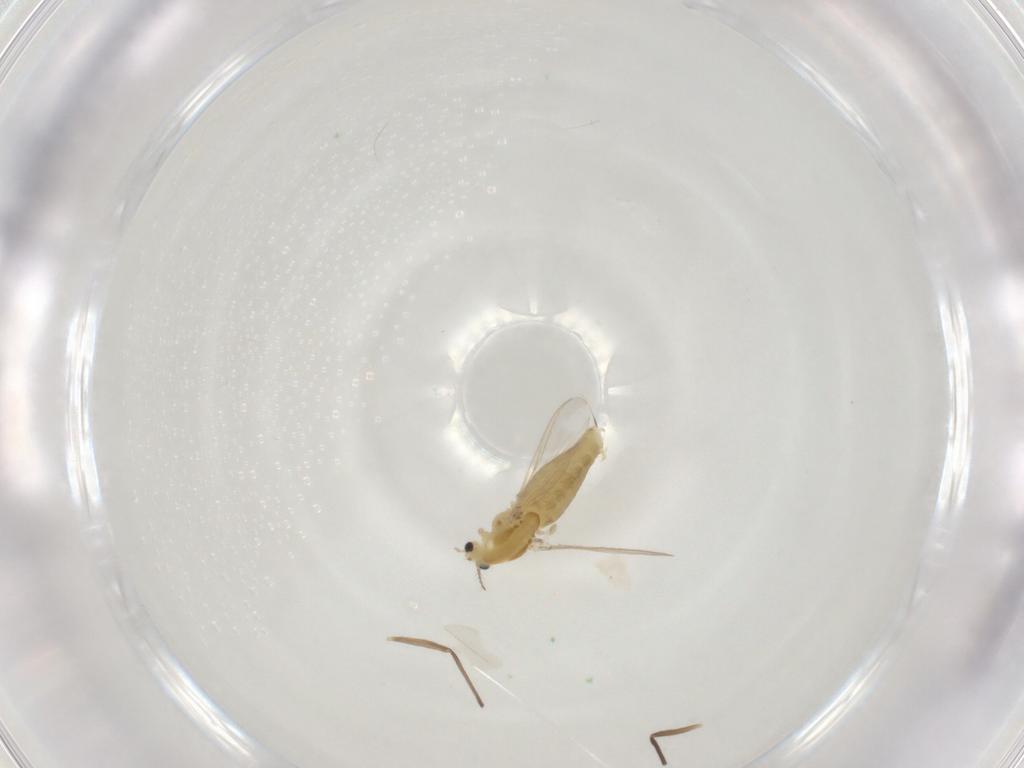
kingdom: Animalia
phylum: Arthropoda
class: Insecta
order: Diptera
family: Chironomidae
